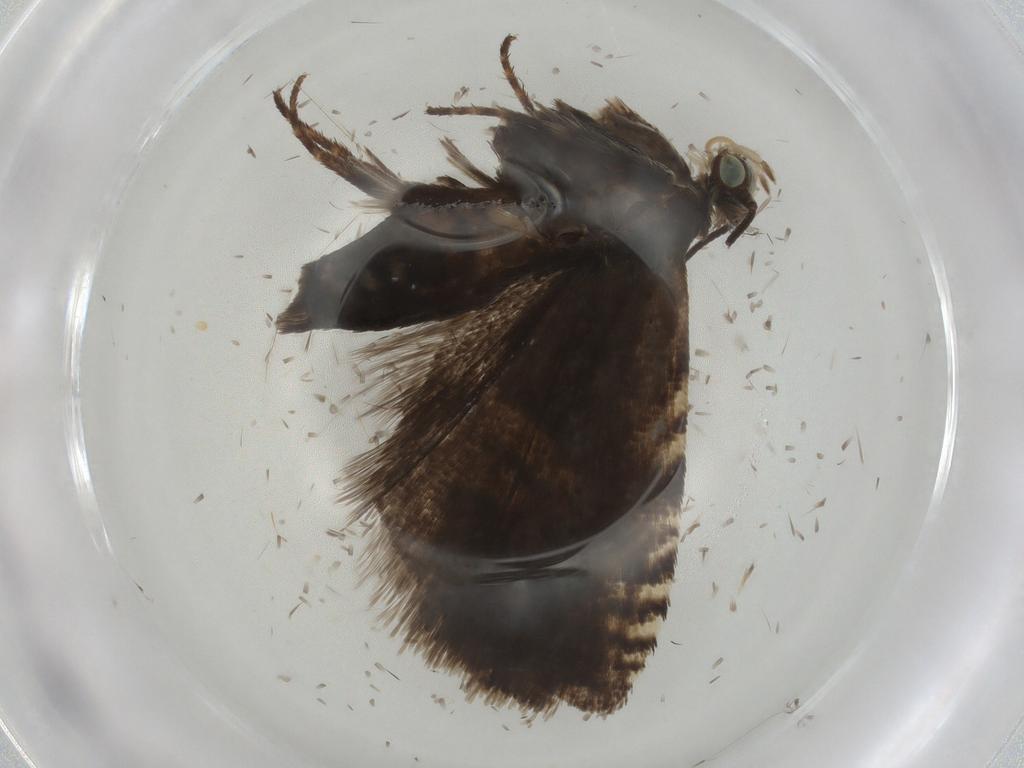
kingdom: Animalia
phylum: Arthropoda
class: Insecta
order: Lepidoptera
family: Tortricidae
